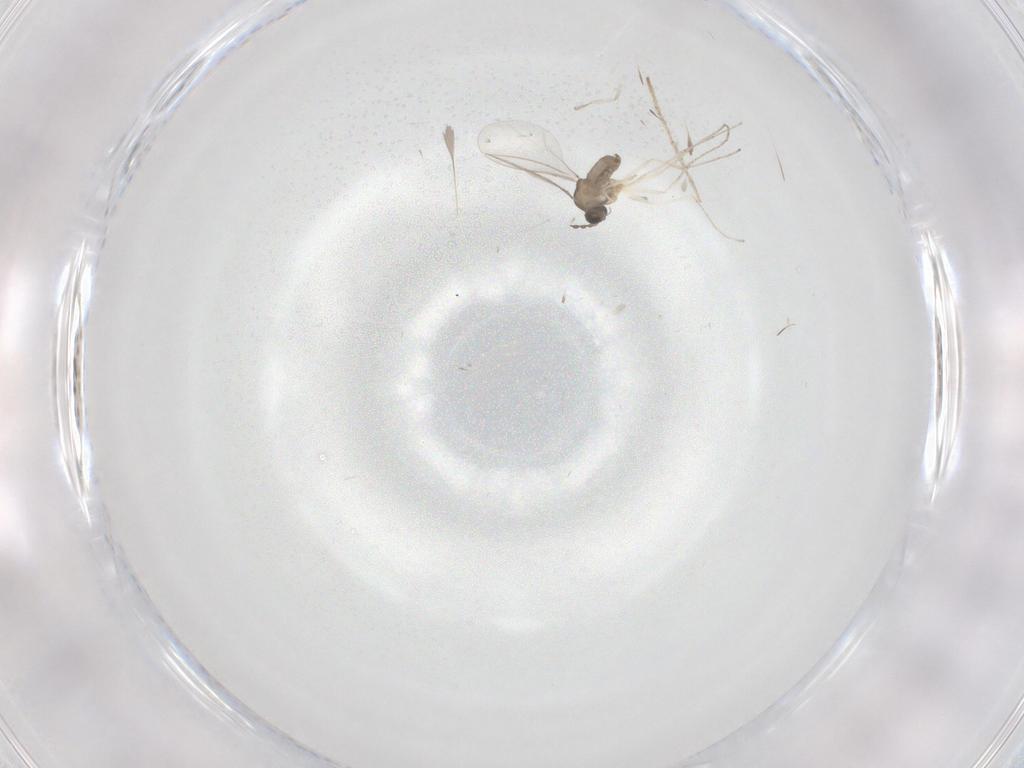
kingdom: Animalia
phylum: Arthropoda
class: Insecta
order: Diptera
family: Cecidomyiidae
